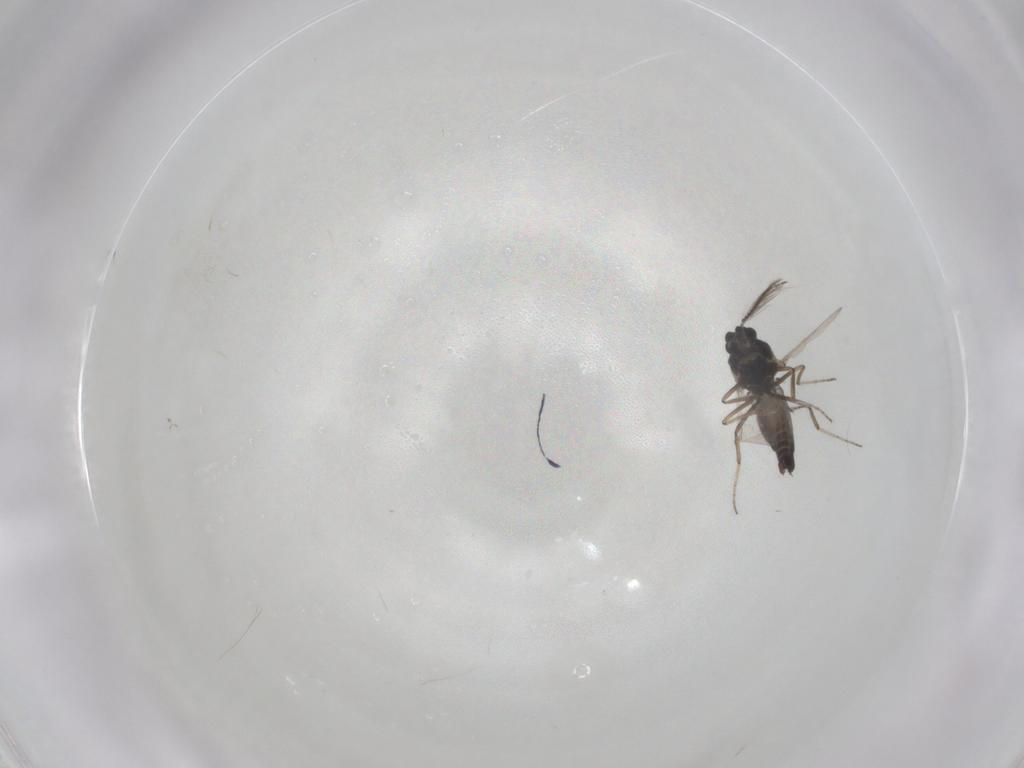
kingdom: Animalia
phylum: Arthropoda
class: Insecta
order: Diptera
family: Ceratopogonidae
